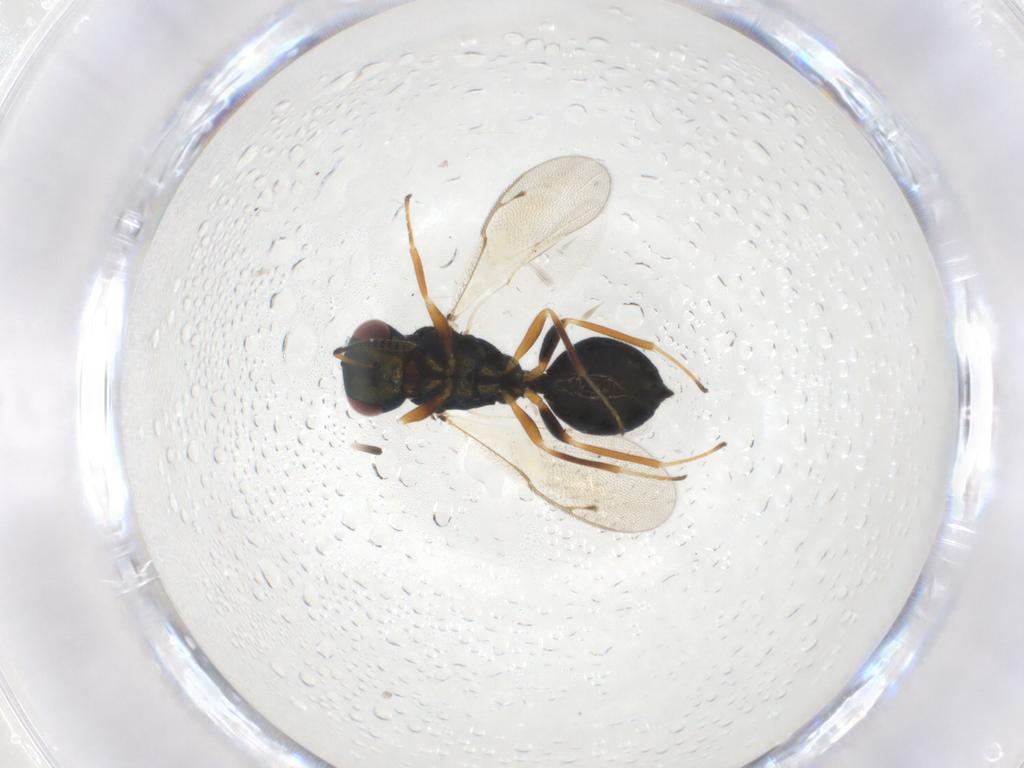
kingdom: Animalia
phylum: Arthropoda
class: Insecta
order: Hymenoptera
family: Pteromalidae
